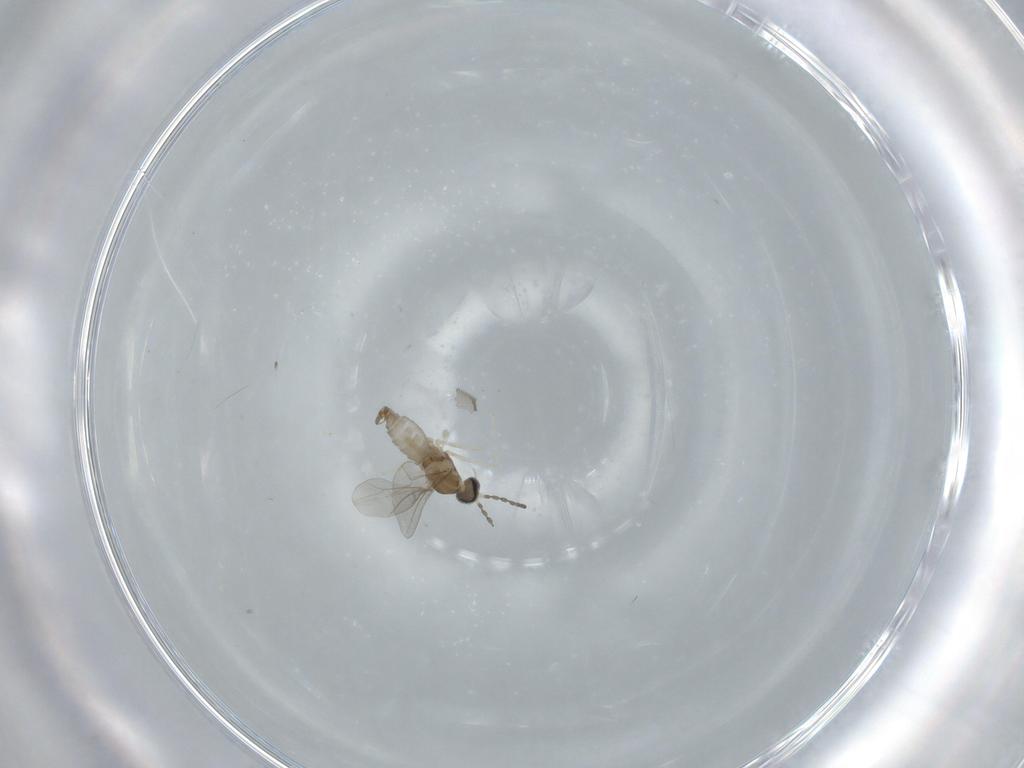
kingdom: Animalia
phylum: Arthropoda
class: Insecta
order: Diptera
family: Cecidomyiidae
